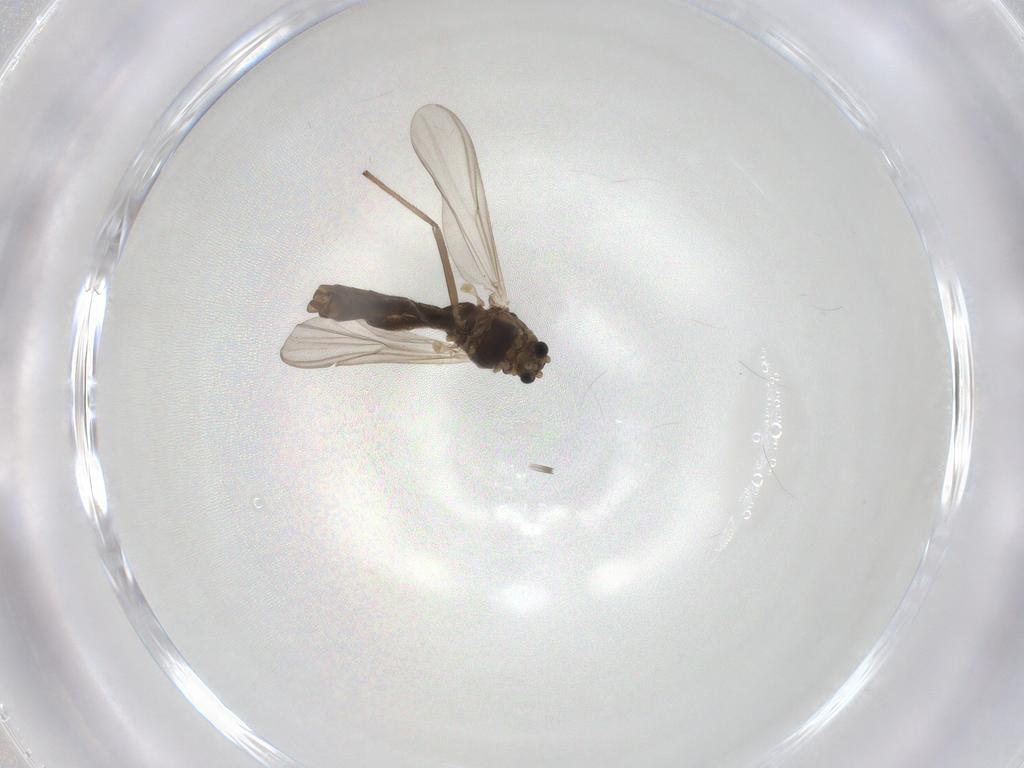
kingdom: Animalia
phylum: Arthropoda
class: Insecta
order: Diptera
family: Chironomidae
